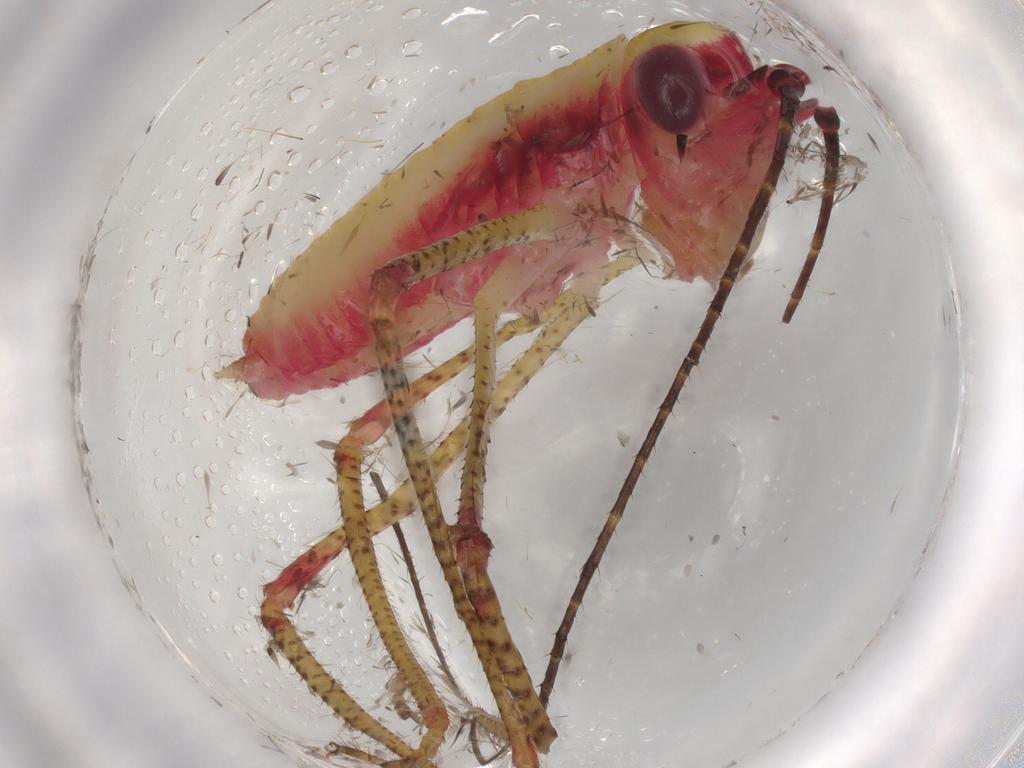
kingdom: Animalia
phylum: Arthropoda
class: Insecta
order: Orthoptera
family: Tettigoniidae
